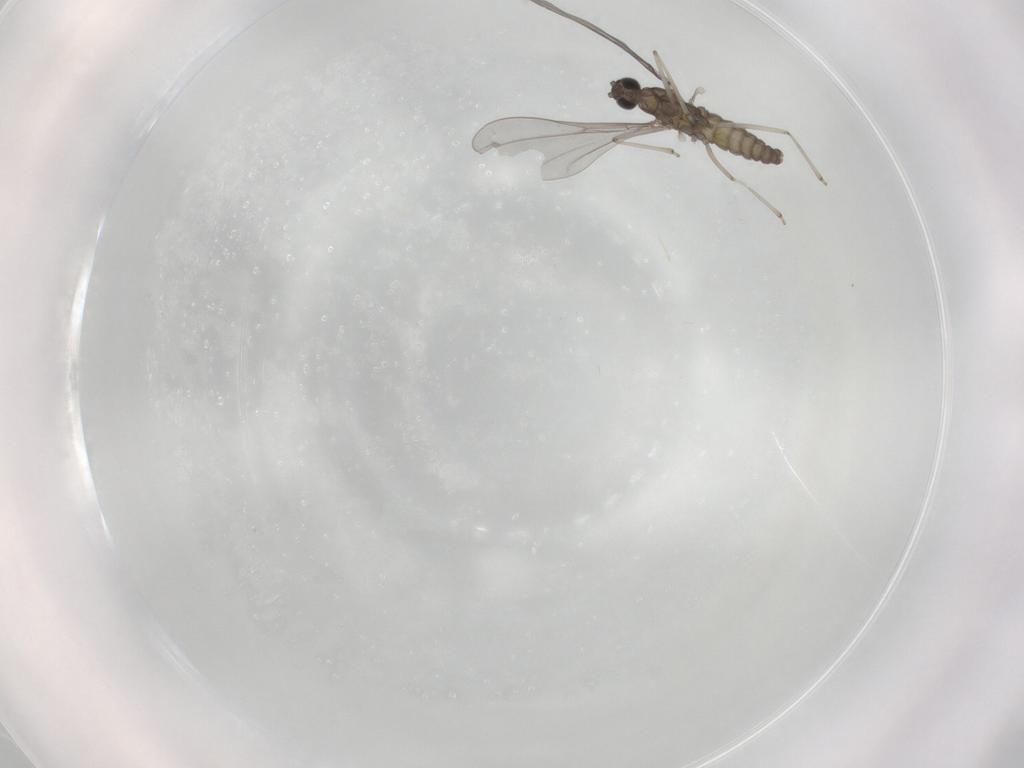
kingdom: Animalia
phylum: Arthropoda
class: Insecta
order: Diptera
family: Cecidomyiidae
